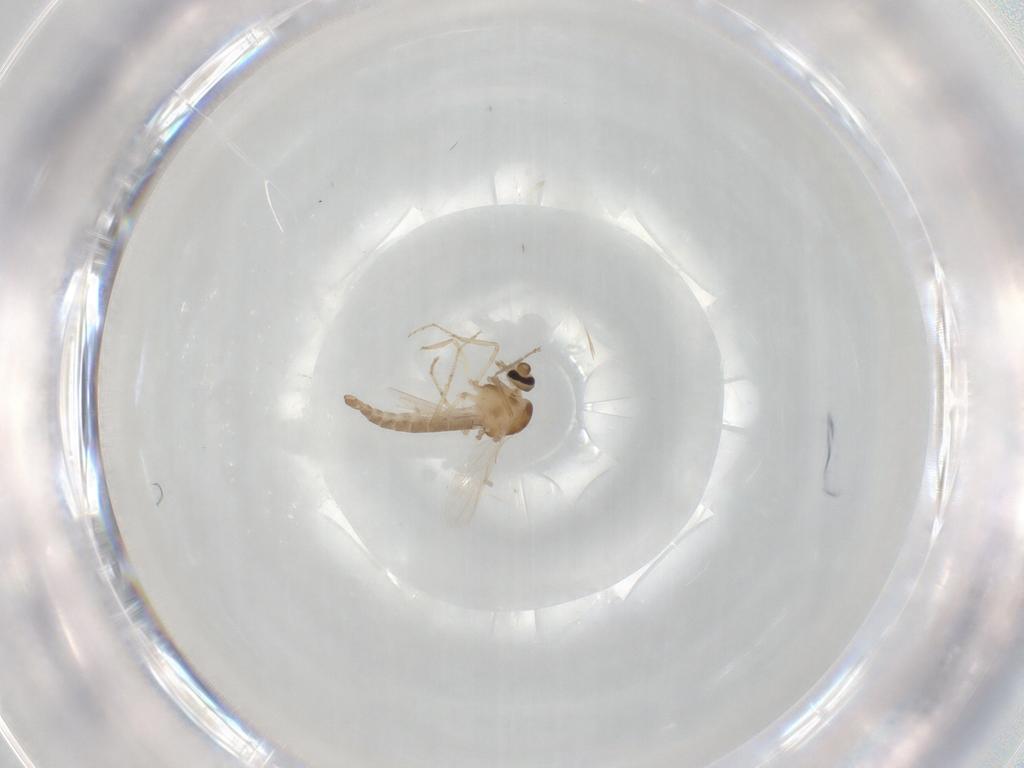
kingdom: Animalia
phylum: Arthropoda
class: Insecta
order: Diptera
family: Ceratopogonidae
